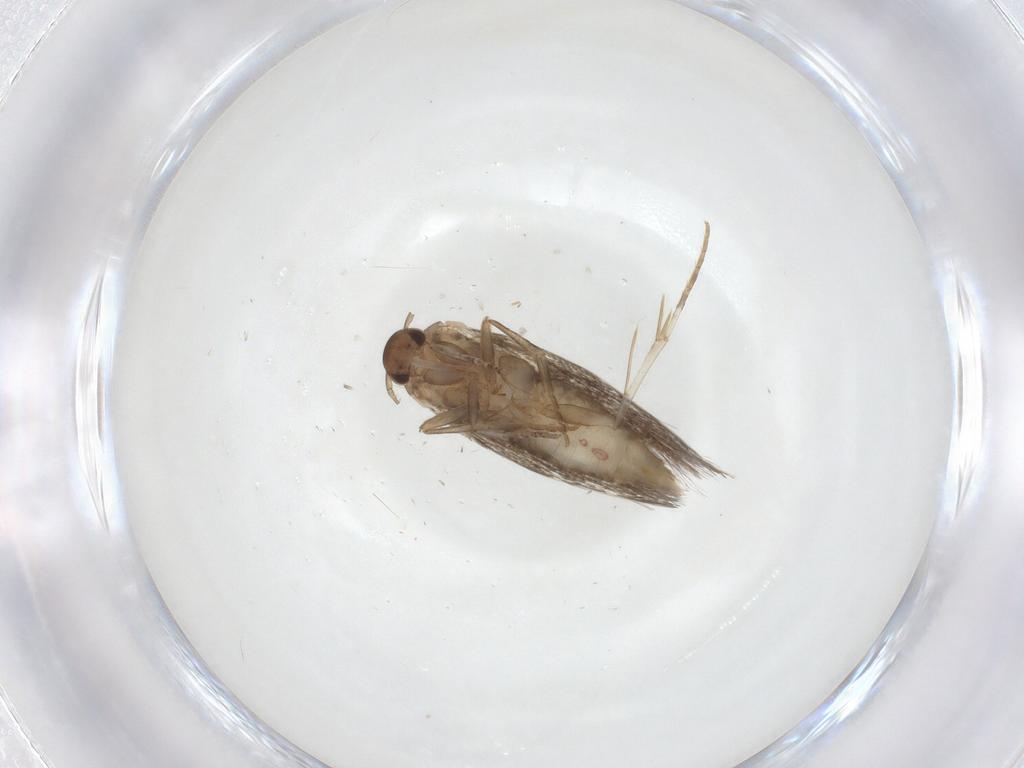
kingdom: Animalia
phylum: Arthropoda
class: Insecta
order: Lepidoptera
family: Elachistidae
